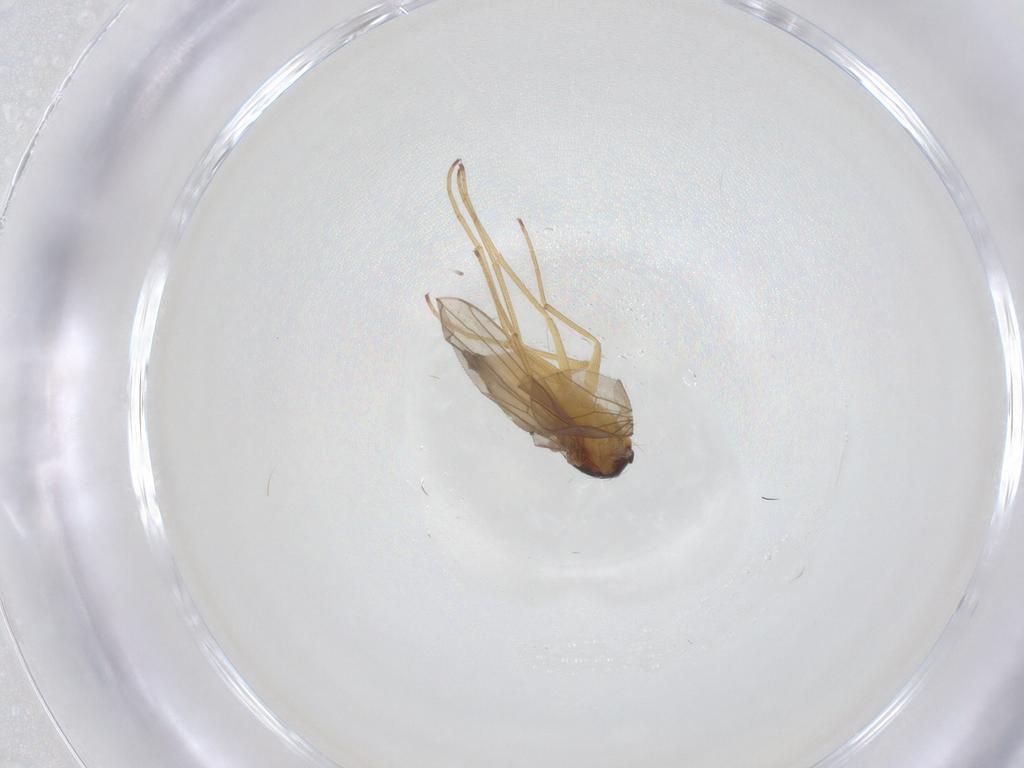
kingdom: Animalia
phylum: Arthropoda
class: Insecta
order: Diptera
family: Dolichopodidae
